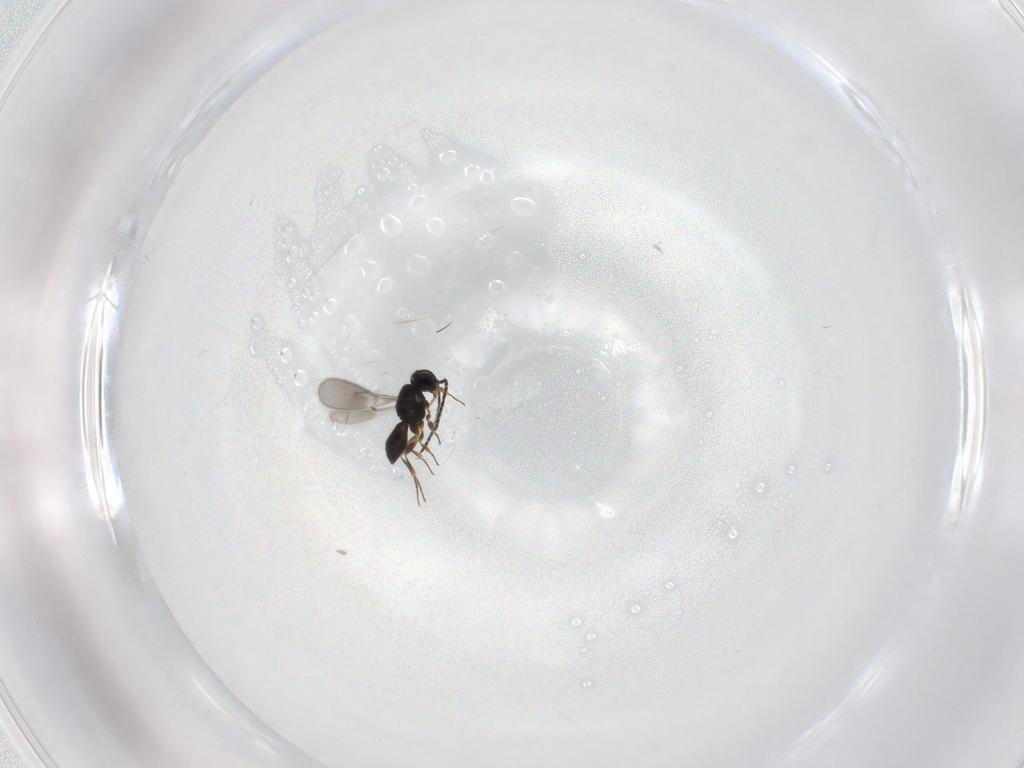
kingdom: Animalia
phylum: Arthropoda
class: Insecta
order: Hymenoptera
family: Scelionidae
